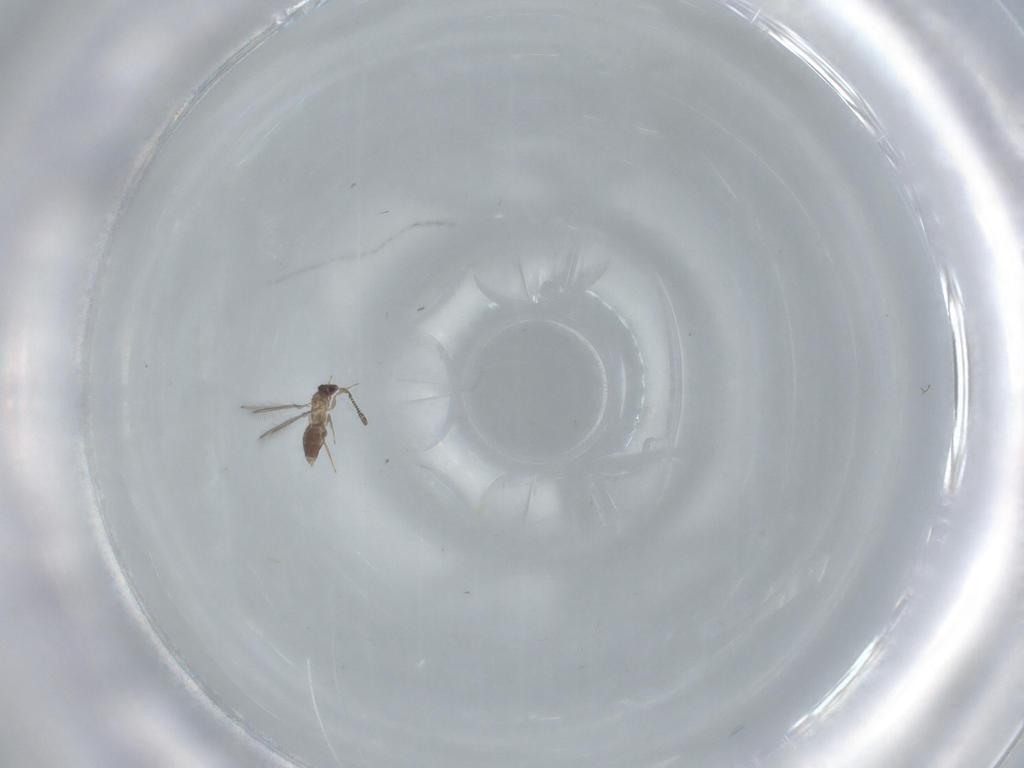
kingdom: Animalia
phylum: Arthropoda
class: Insecta
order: Hymenoptera
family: Mymaridae
